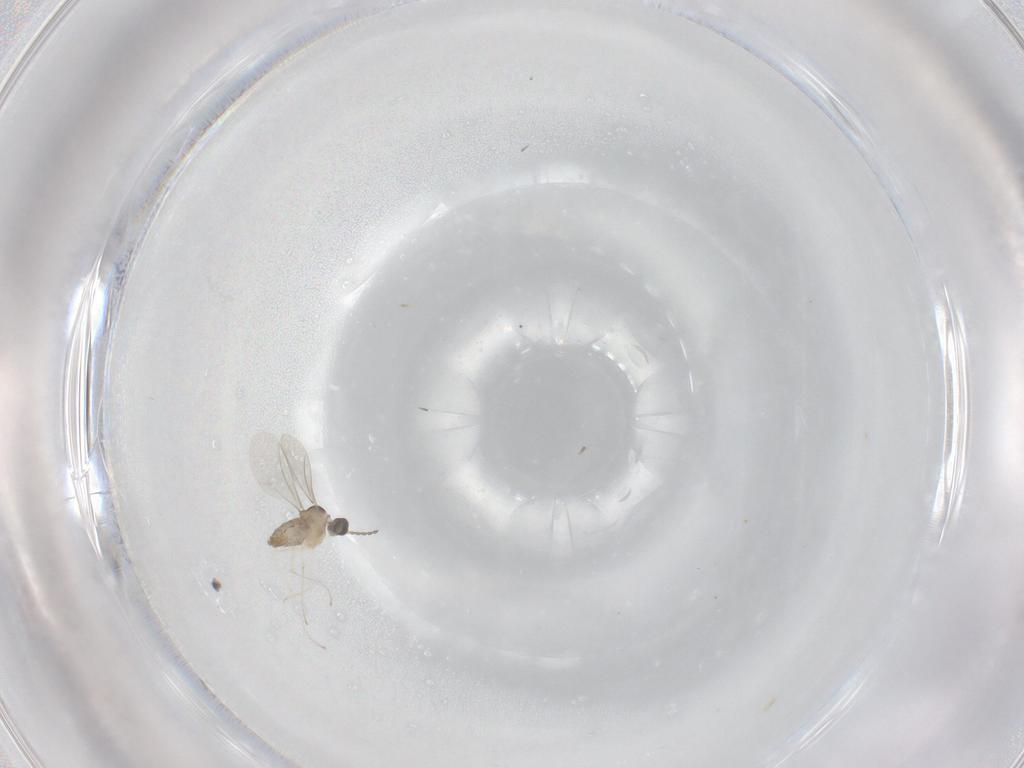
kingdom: Animalia
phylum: Arthropoda
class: Insecta
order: Diptera
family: Cecidomyiidae
